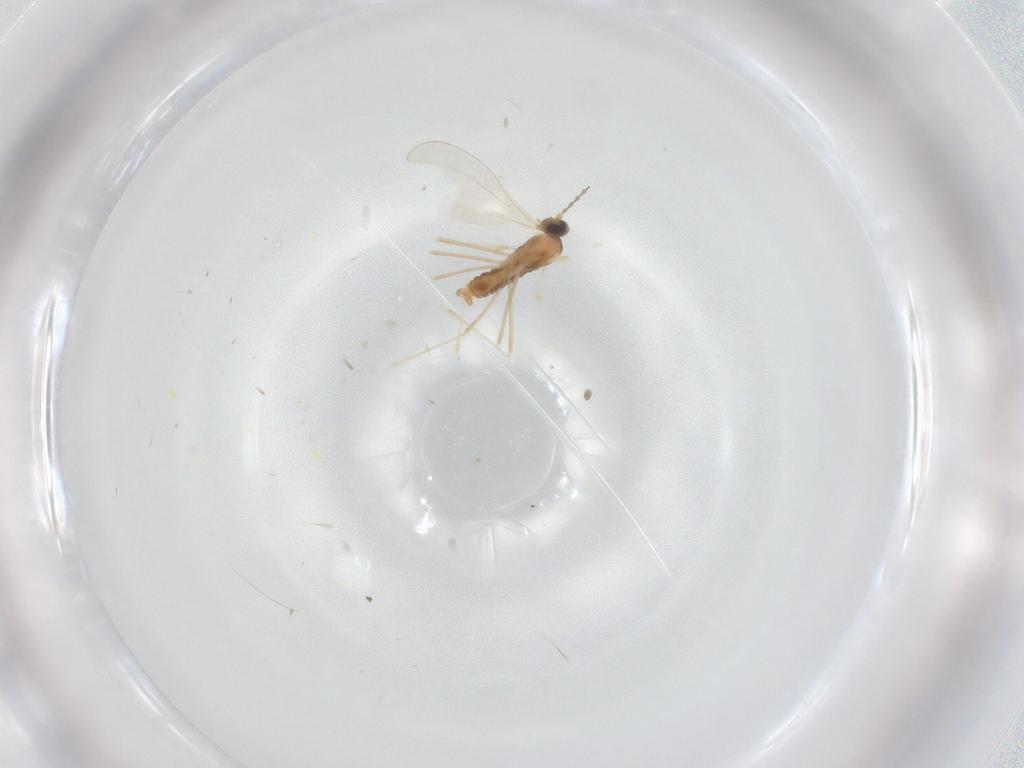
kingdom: Animalia
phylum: Arthropoda
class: Insecta
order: Diptera
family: Cecidomyiidae
